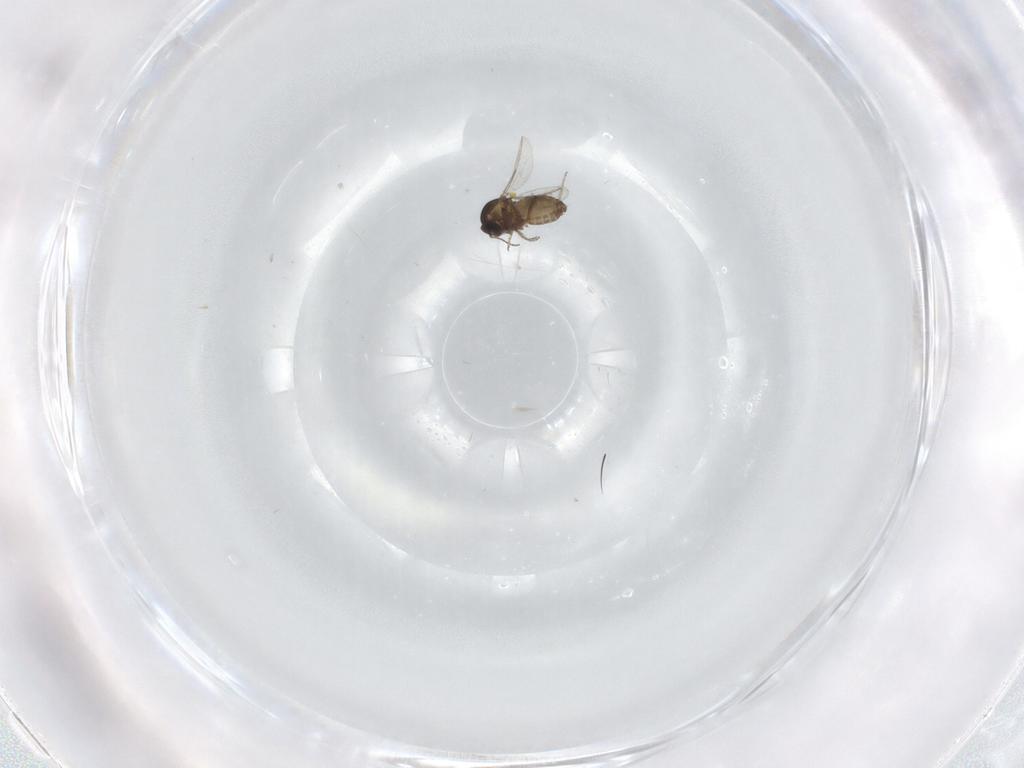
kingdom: Animalia
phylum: Arthropoda
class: Insecta
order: Diptera
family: Ceratopogonidae
